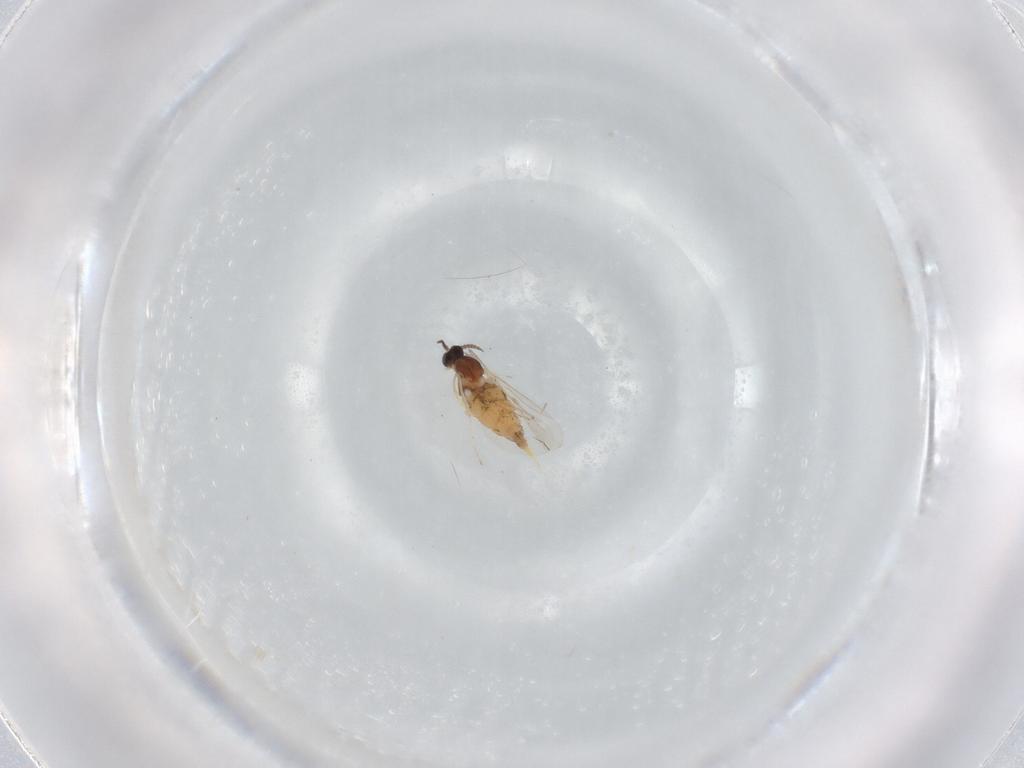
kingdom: Animalia
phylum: Arthropoda
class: Insecta
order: Diptera
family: Cecidomyiidae
